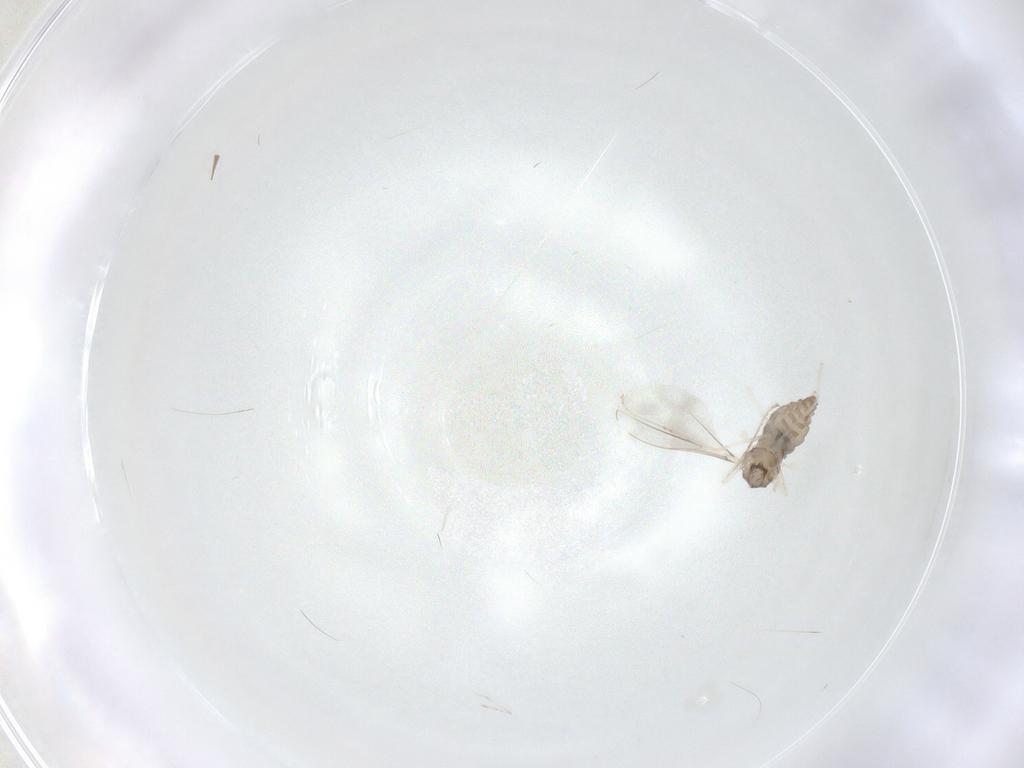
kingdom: Animalia
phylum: Arthropoda
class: Insecta
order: Diptera
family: Cecidomyiidae
